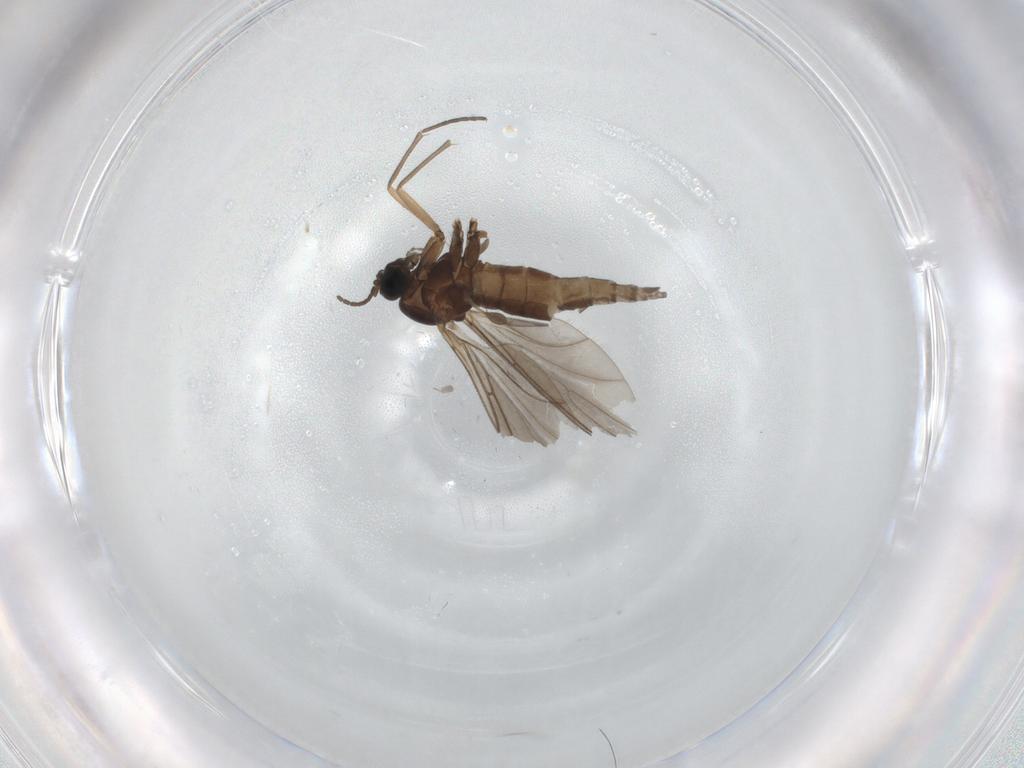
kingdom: Animalia
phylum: Arthropoda
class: Insecta
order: Diptera
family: Sciaridae
